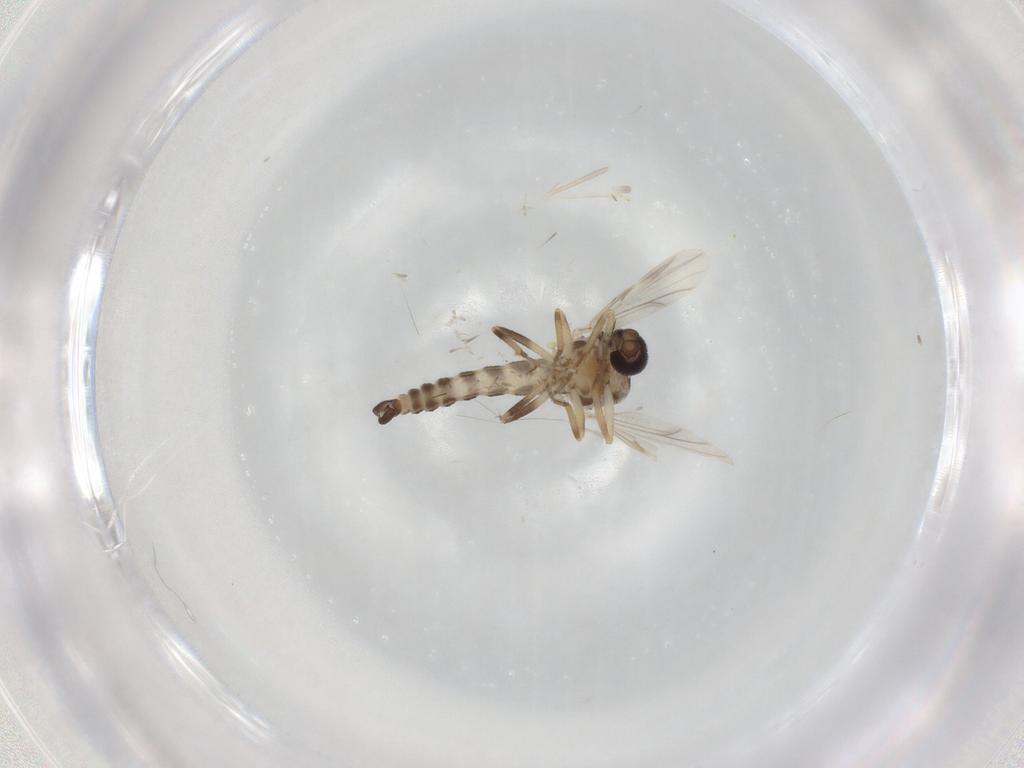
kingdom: Animalia
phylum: Arthropoda
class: Insecta
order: Diptera
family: Ceratopogonidae
